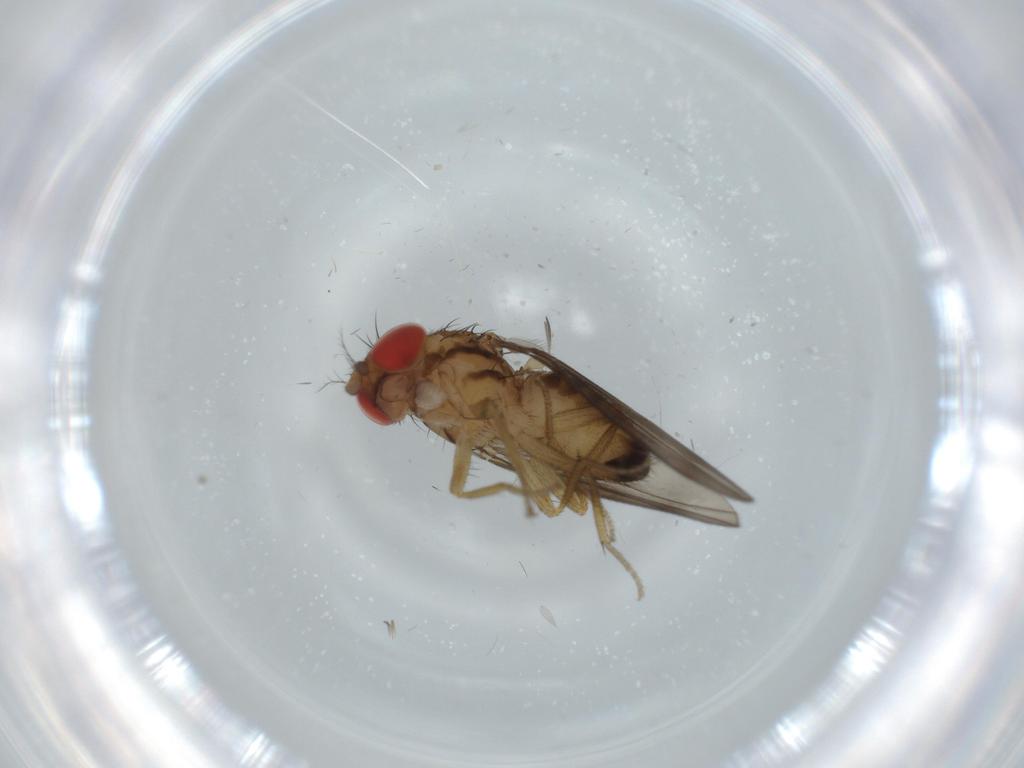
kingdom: Animalia
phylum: Arthropoda
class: Insecta
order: Diptera
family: Drosophilidae
